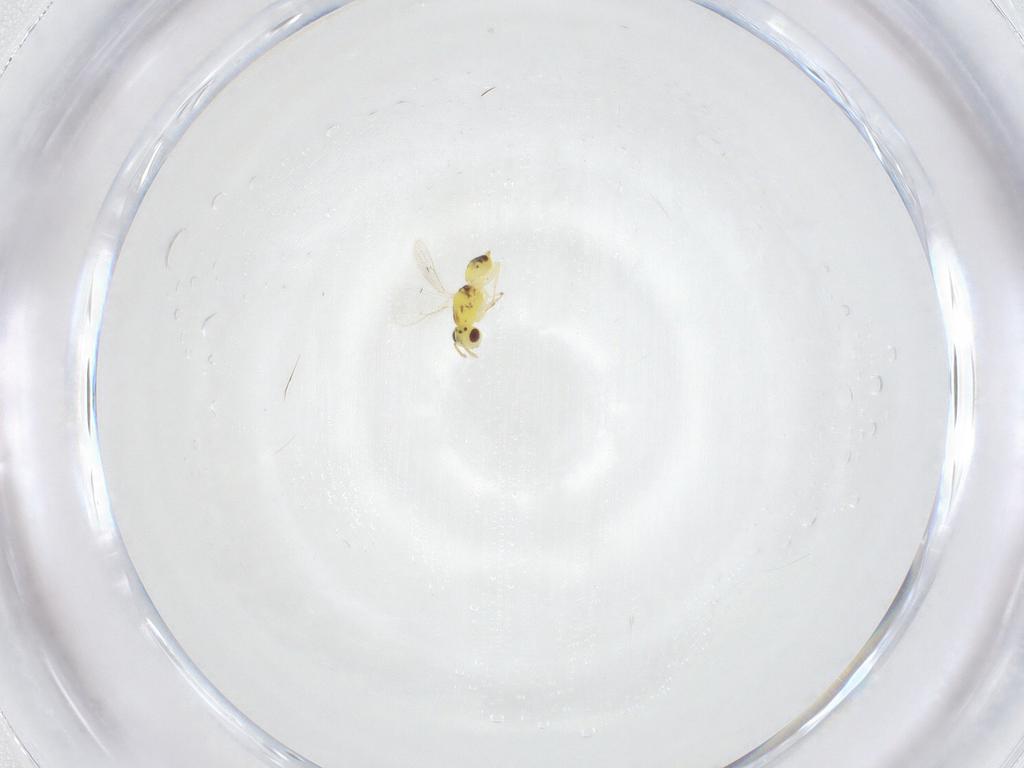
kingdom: Animalia
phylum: Arthropoda
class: Insecta
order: Hymenoptera
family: Eulophidae
